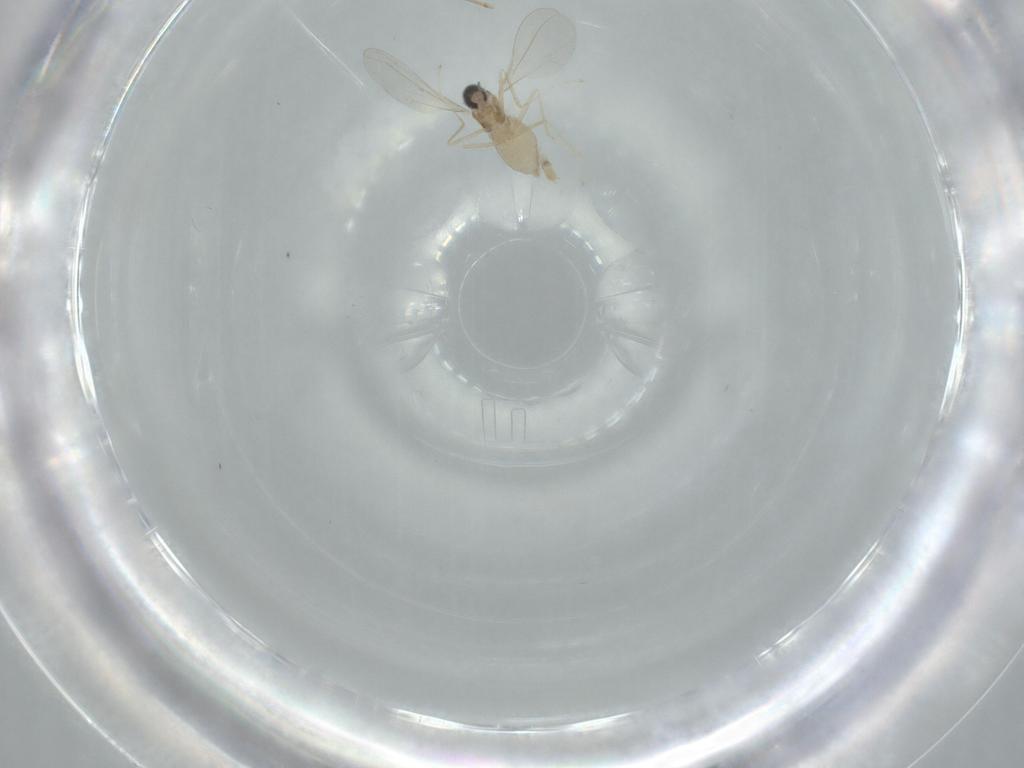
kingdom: Animalia
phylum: Arthropoda
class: Insecta
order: Diptera
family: Cecidomyiidae
